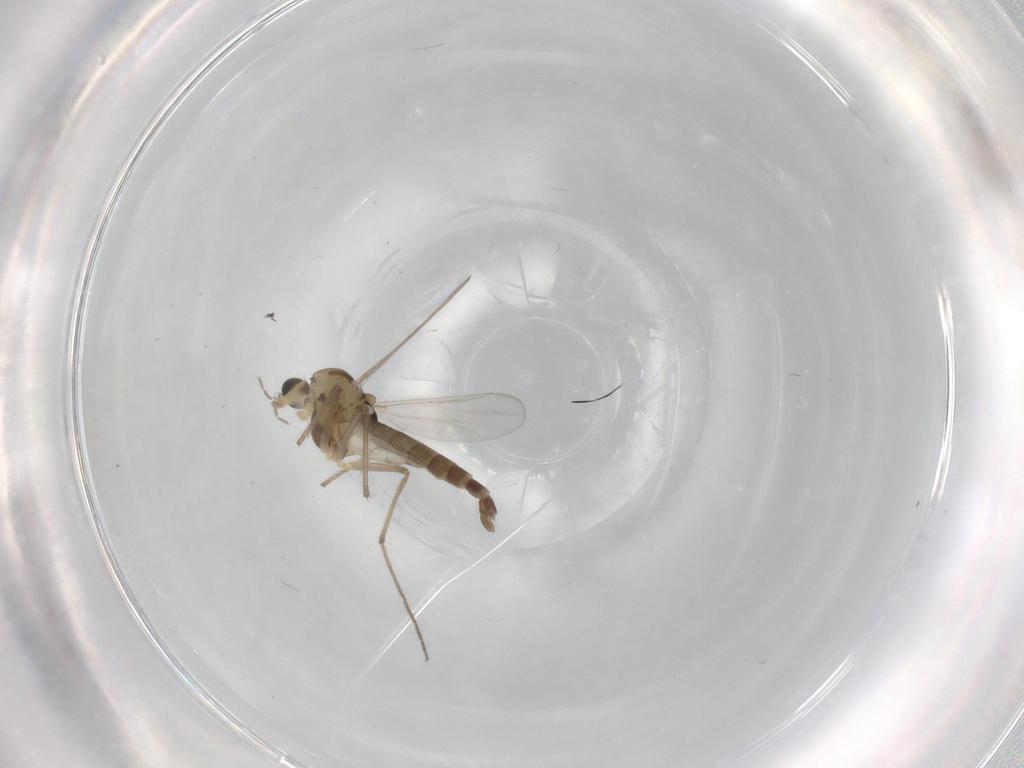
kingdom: Animalia
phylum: Arthropoda
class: Insecta
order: Diptera
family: Chironomidae
